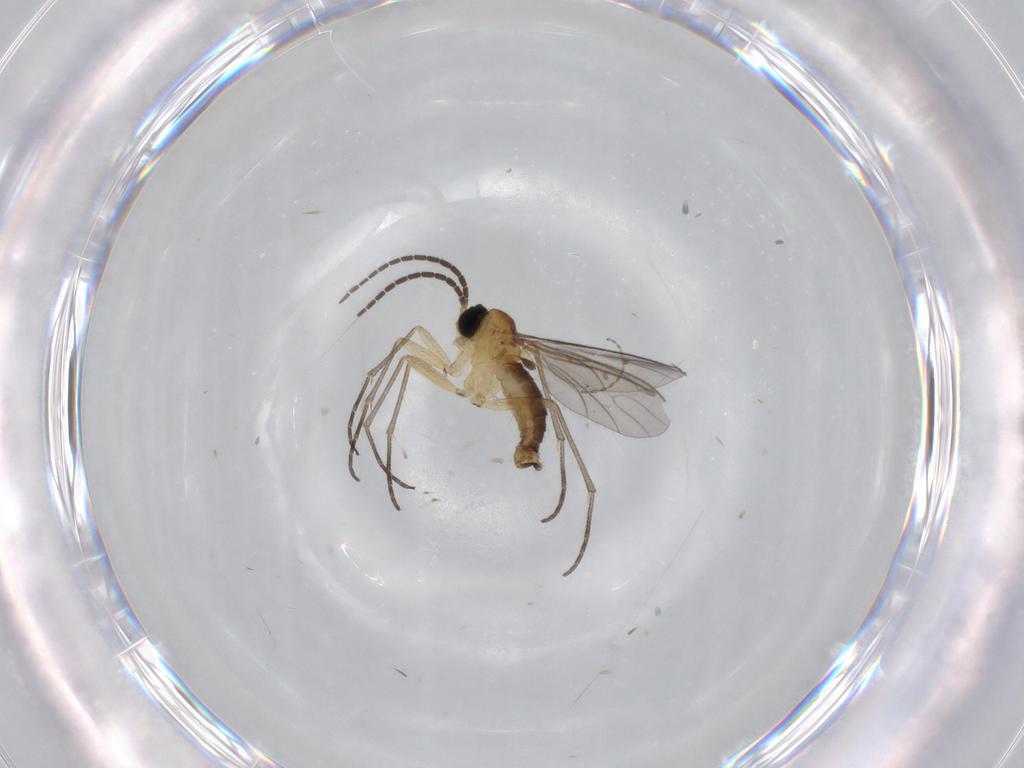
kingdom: Animalia
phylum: Arthropoda
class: Insecta
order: Diptera
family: Sciaridae
